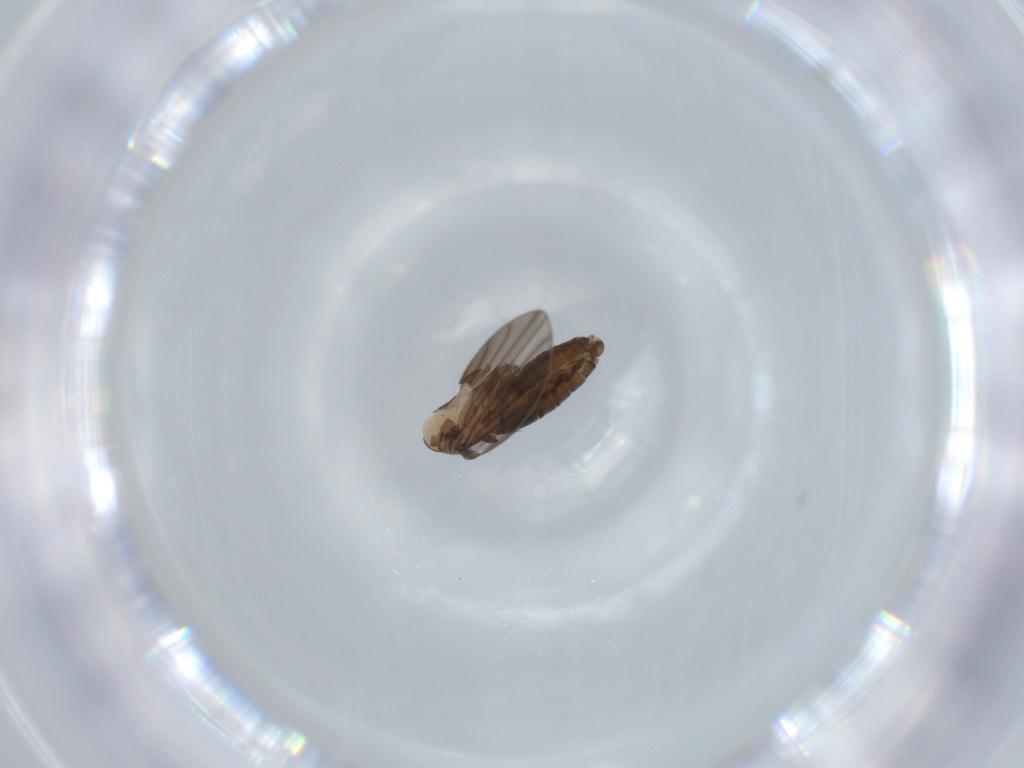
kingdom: Animalia
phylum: Arthropoda
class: Insecta
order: Diptera
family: Psychodidae
